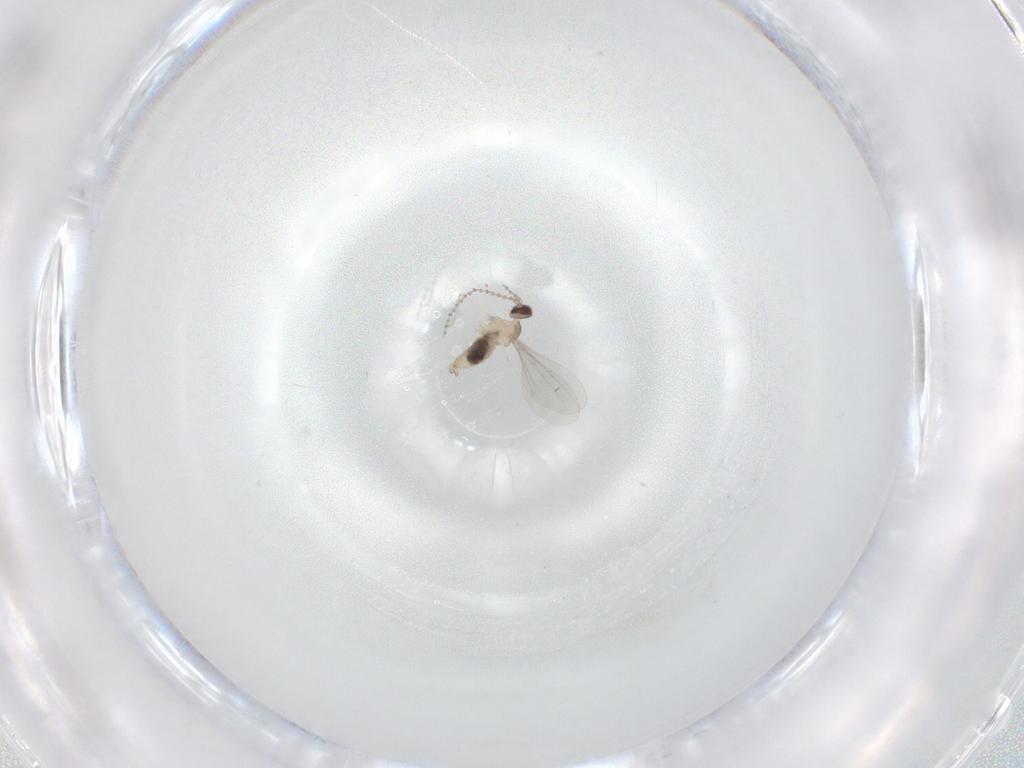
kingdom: Animalia
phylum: Arthropoda
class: Insecta
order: Diptera
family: Cecidomyiidae
